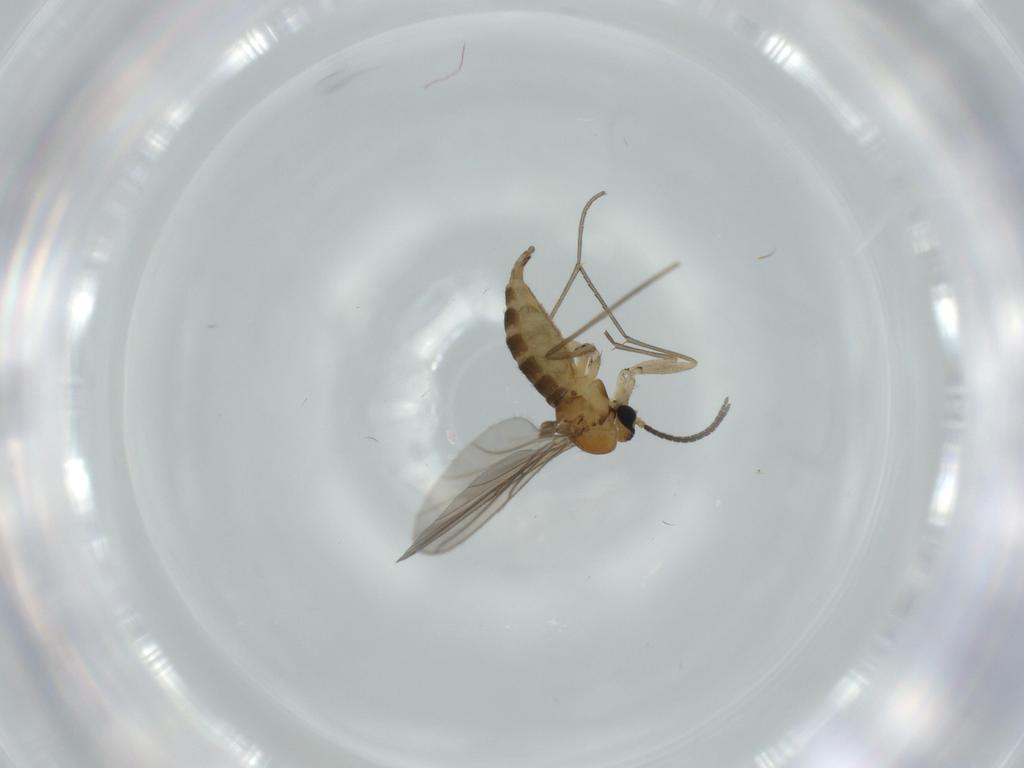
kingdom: Animalia
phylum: Arthropoda
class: Insecta
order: Diptera
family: Sciaridae
